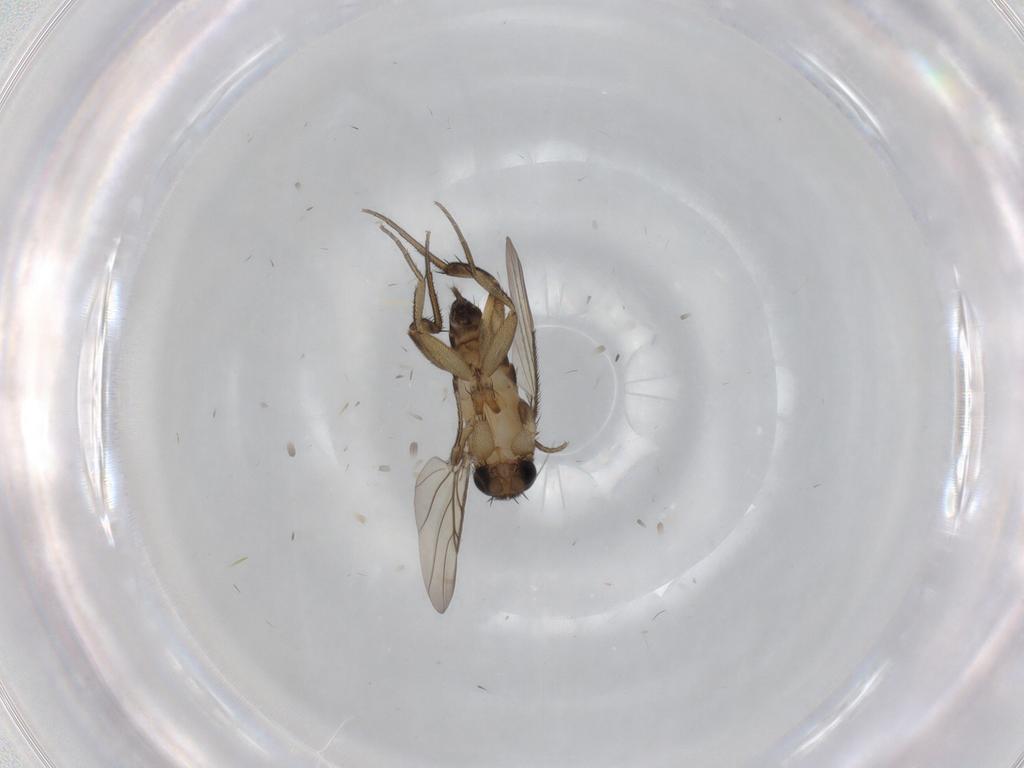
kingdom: Animalia
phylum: Arthropoda
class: Insecta
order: Diptera
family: Phoridae
